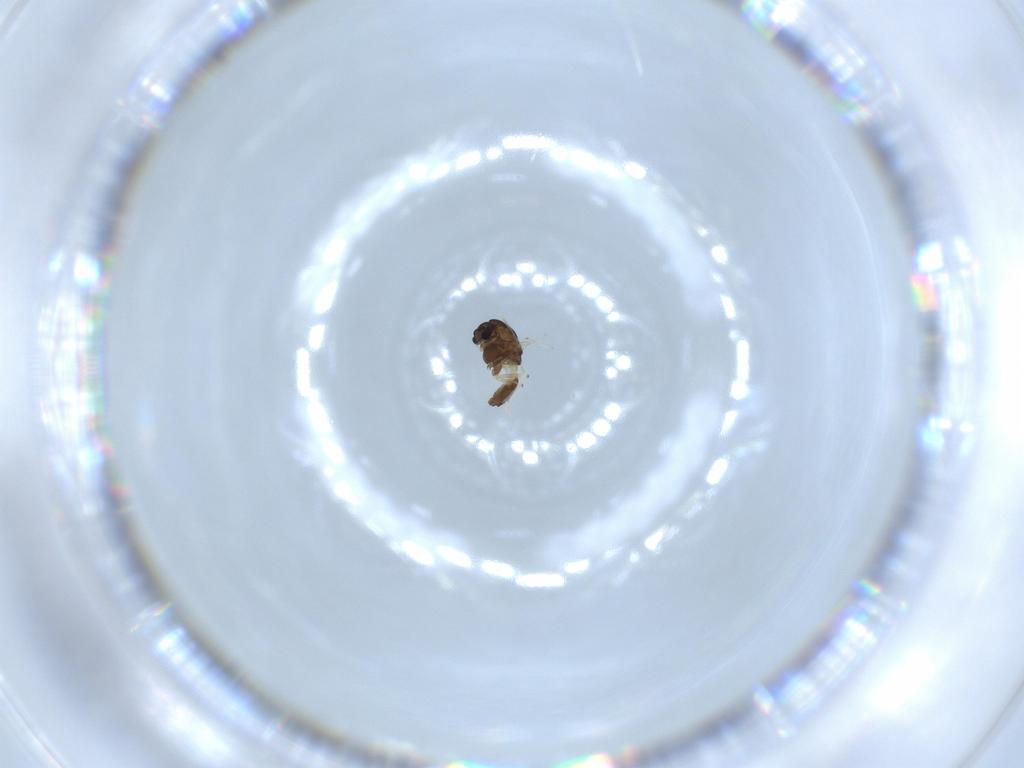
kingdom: Animalia
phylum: Arthropoda
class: Insecta
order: Diptera
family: Chironomidae
